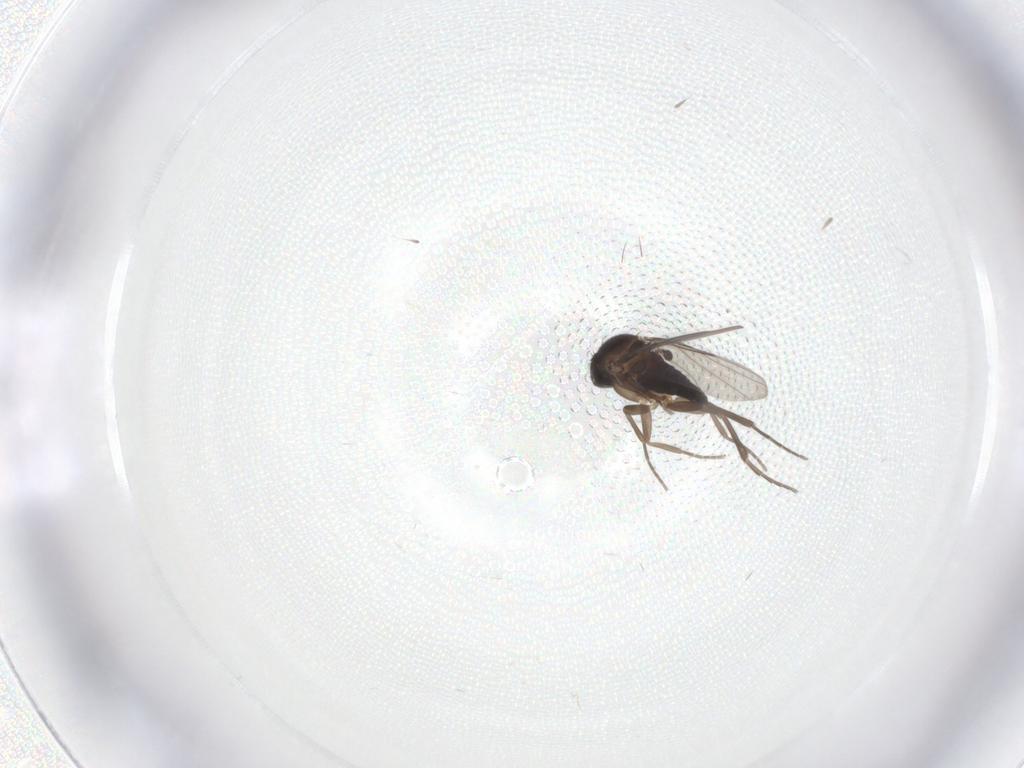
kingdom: Animalia
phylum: Arthropoda
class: Insecta
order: Diptera
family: Phoridae
